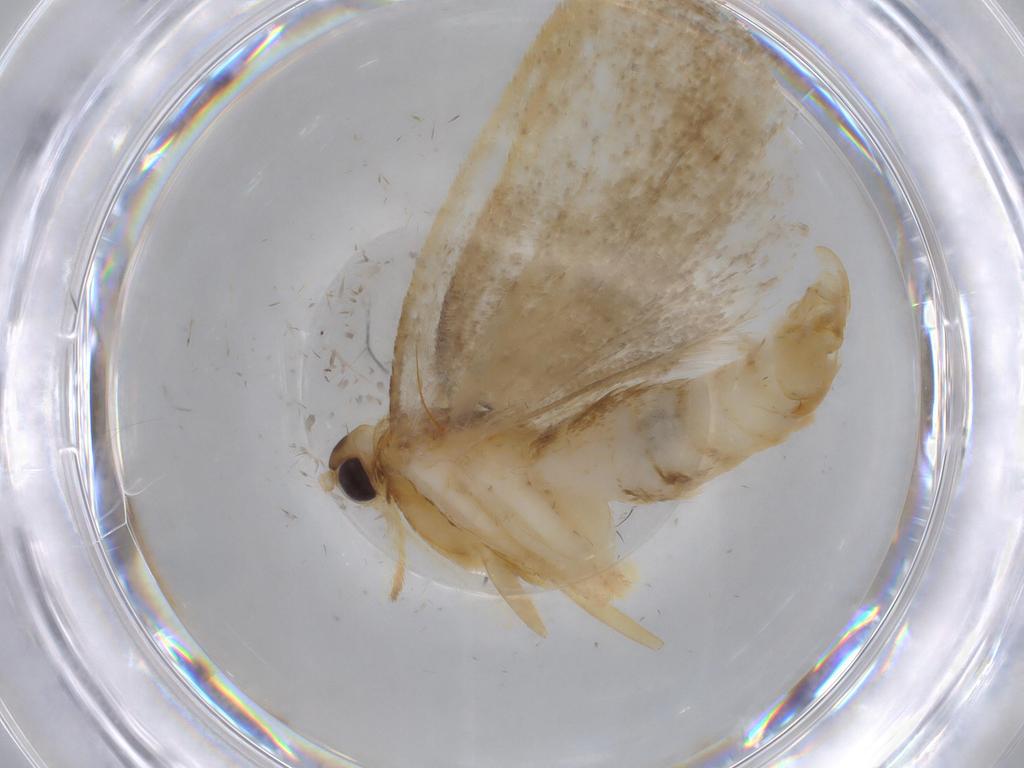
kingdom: Animalia
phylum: Arthropoda
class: Insecta
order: Lepidoptera
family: Lecithoceridae
